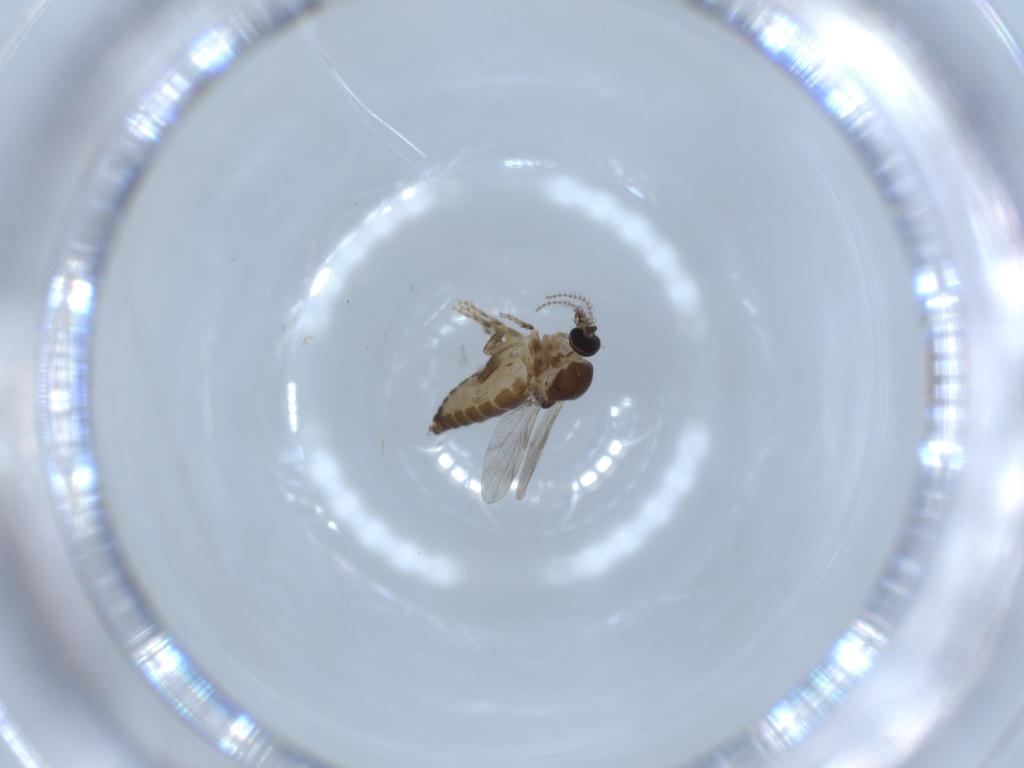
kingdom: Animalia
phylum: Arthropoda
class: Insecta
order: Diptera
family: Ceratopogonidae
